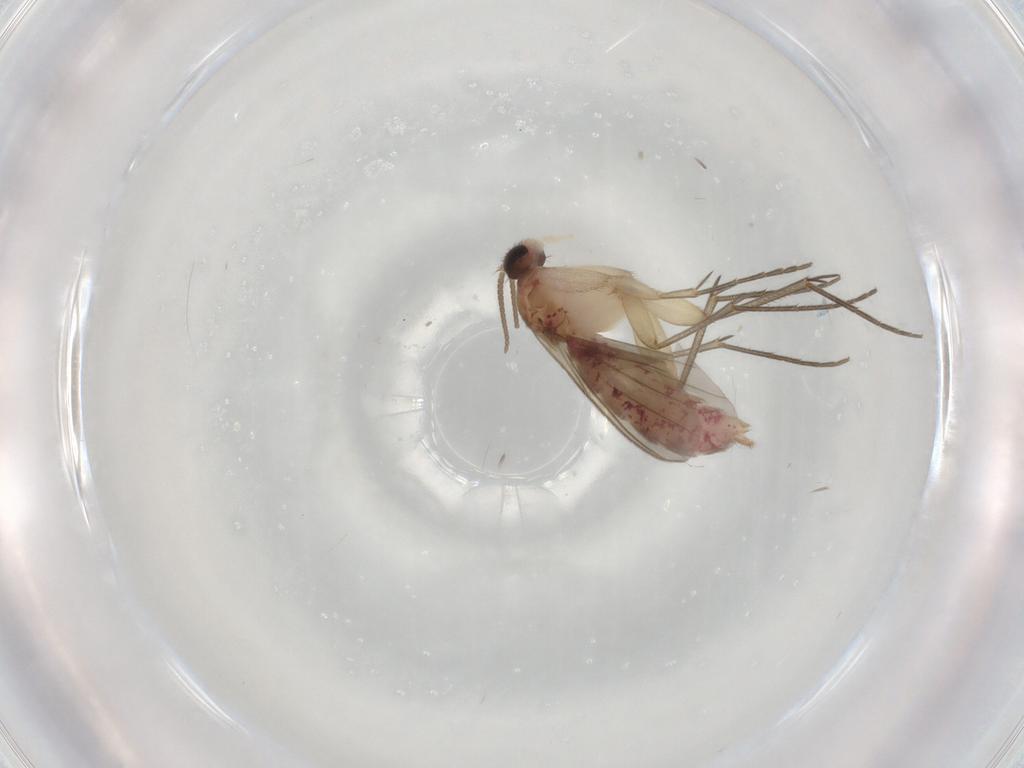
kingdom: Animalia
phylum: Arthropoda
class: Insecta
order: Diptera
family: Mycetophilidae
